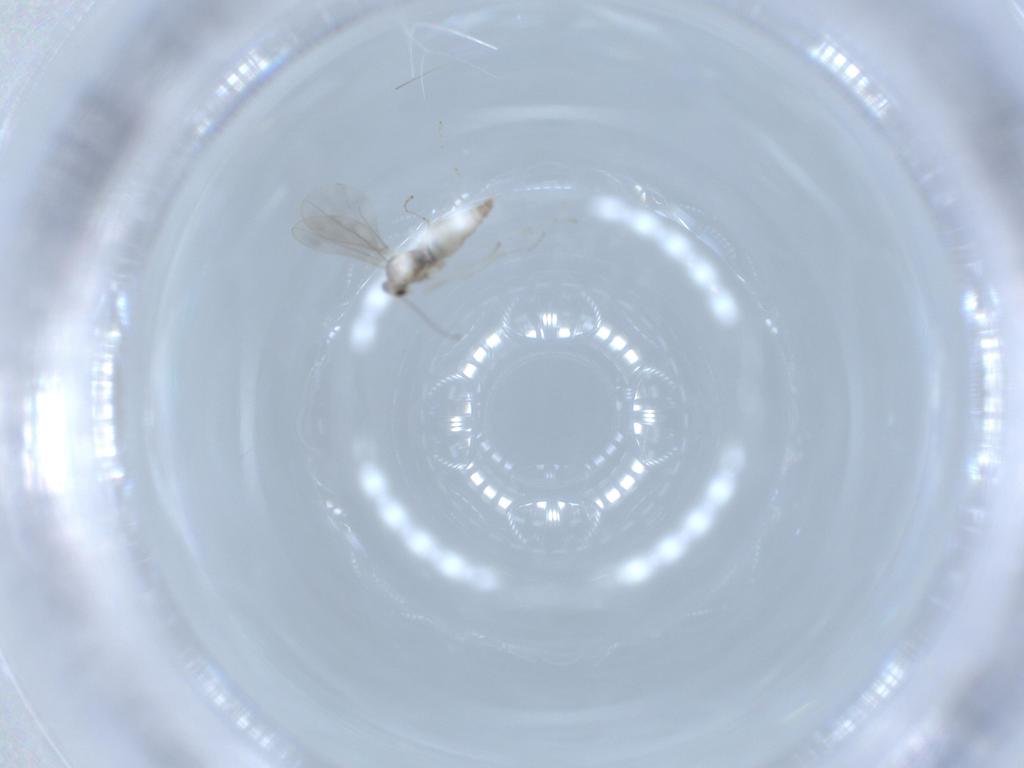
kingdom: Animalia
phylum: Arthropoda
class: Insecta
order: Diptera
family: Cecidomyiidae
